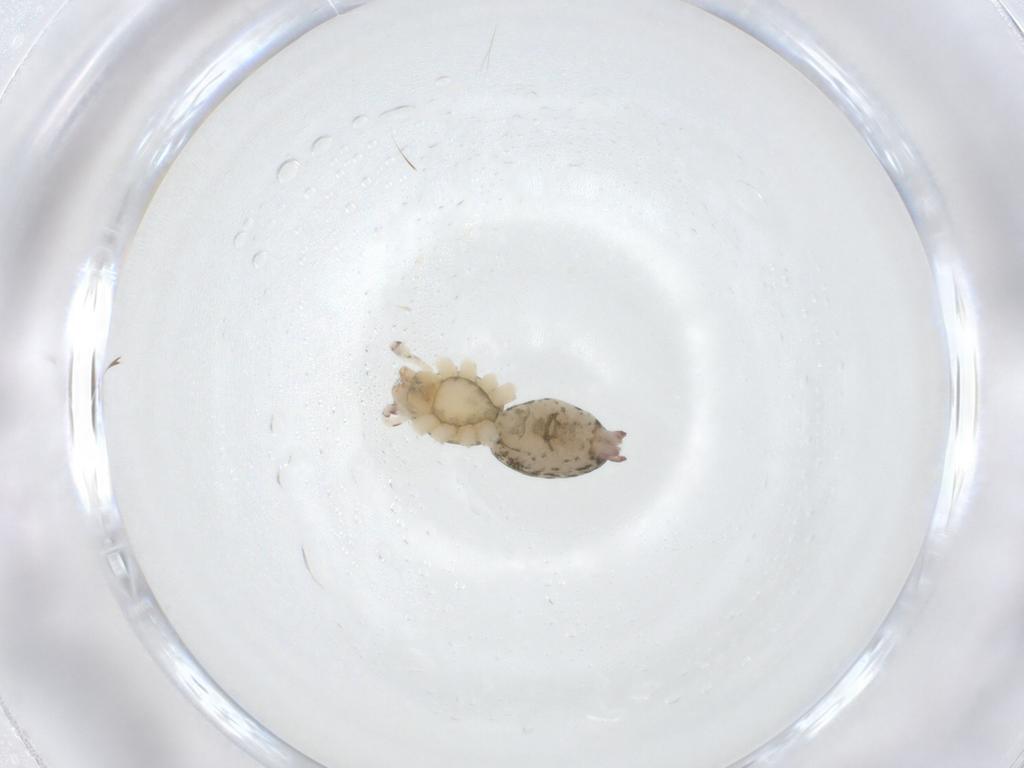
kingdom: Animalia
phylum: Arthropoda
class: Arachnida
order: Araneae
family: Anyphaenidae
